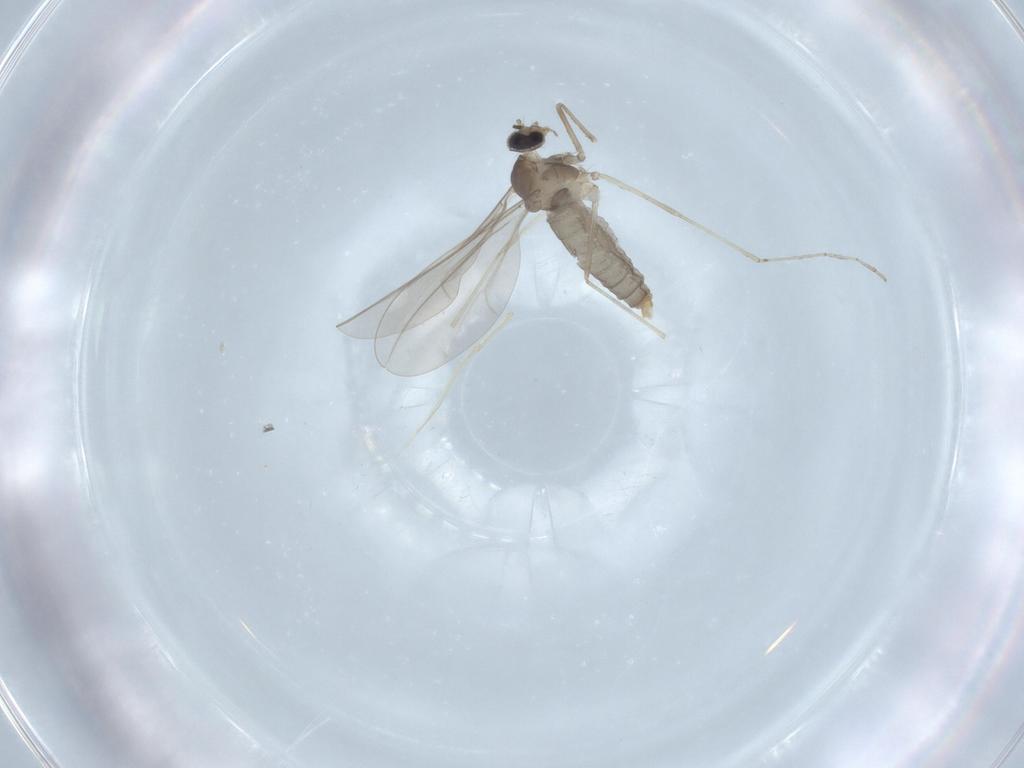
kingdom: Animalia
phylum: Arthropoda
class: Insecta
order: Diptera
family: Cecidomyiidae
